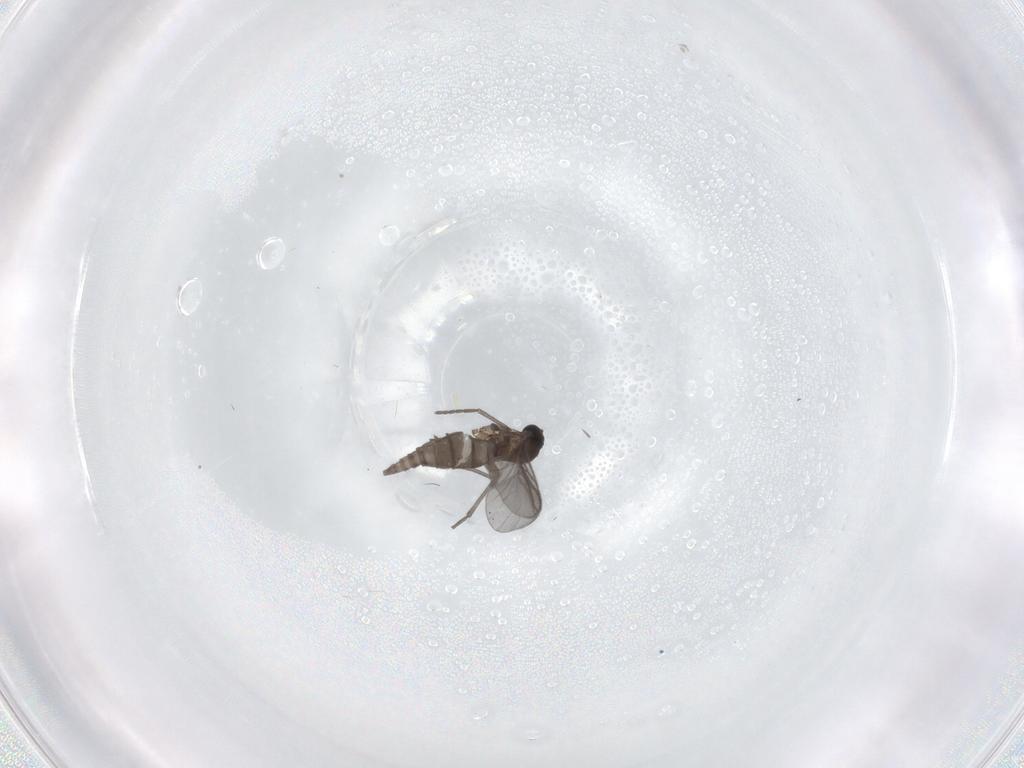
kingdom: Animalia
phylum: Arthropoda
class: Insecta
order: Diptera
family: Sciaridae
